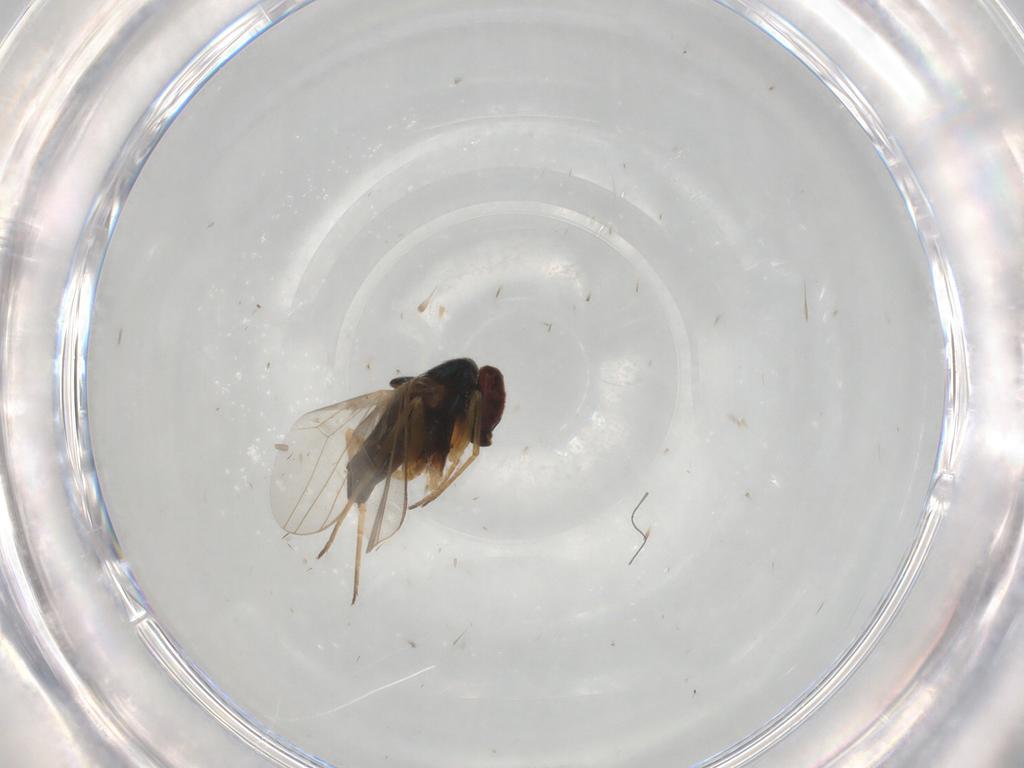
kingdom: Animalia
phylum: Arthropoda
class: Insecta
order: Diptera
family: Dolichopodidae
